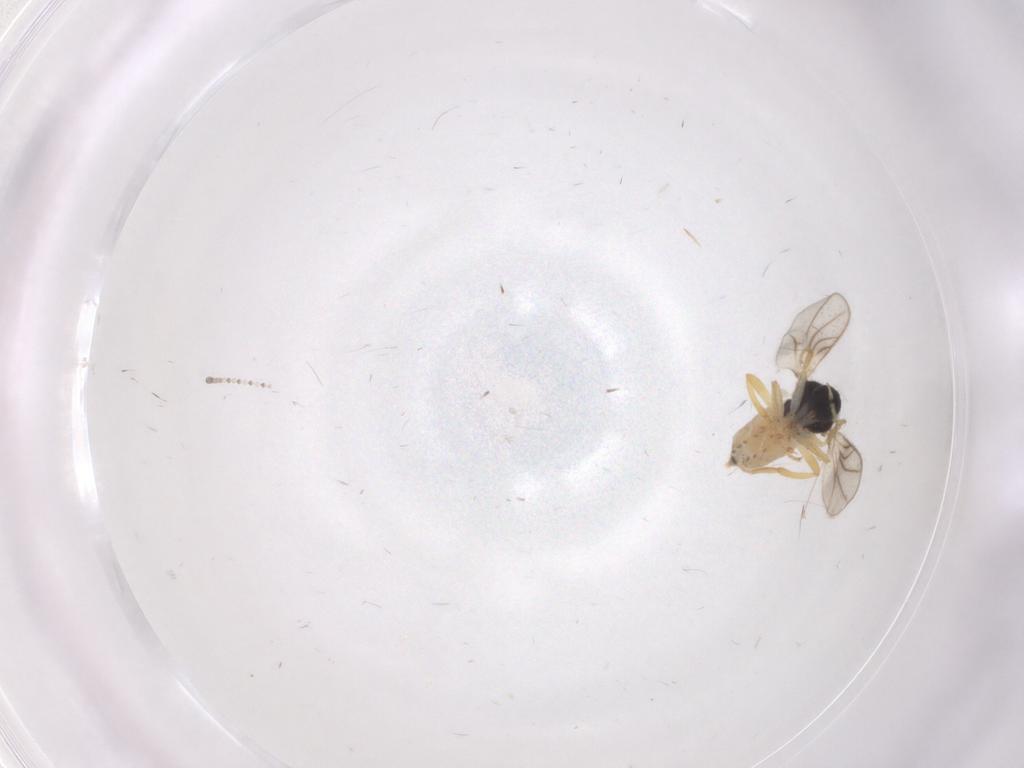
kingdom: Animalia
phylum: Arthropoda
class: Insecta
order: Diptera
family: Hybotidae
